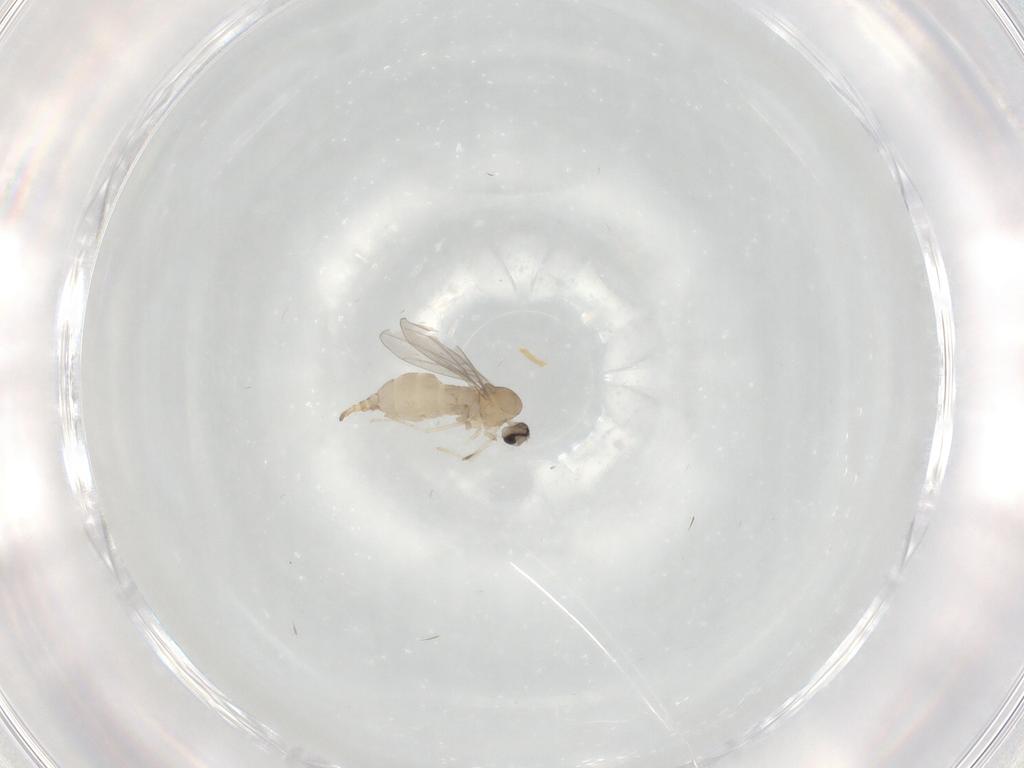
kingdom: Animalia
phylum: Arthropoda
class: Insecta
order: Diptera
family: Cecidomyiidae
